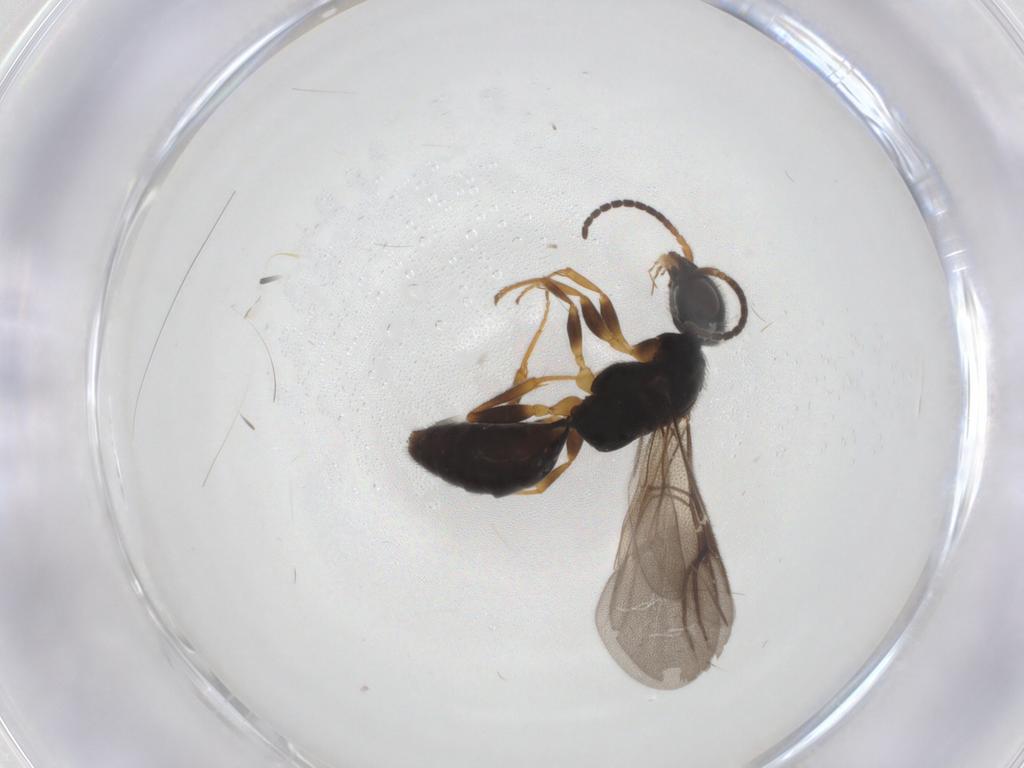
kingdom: Animalia
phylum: Arthropoda
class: Insecta
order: Hymenoptera
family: Bethylidae
